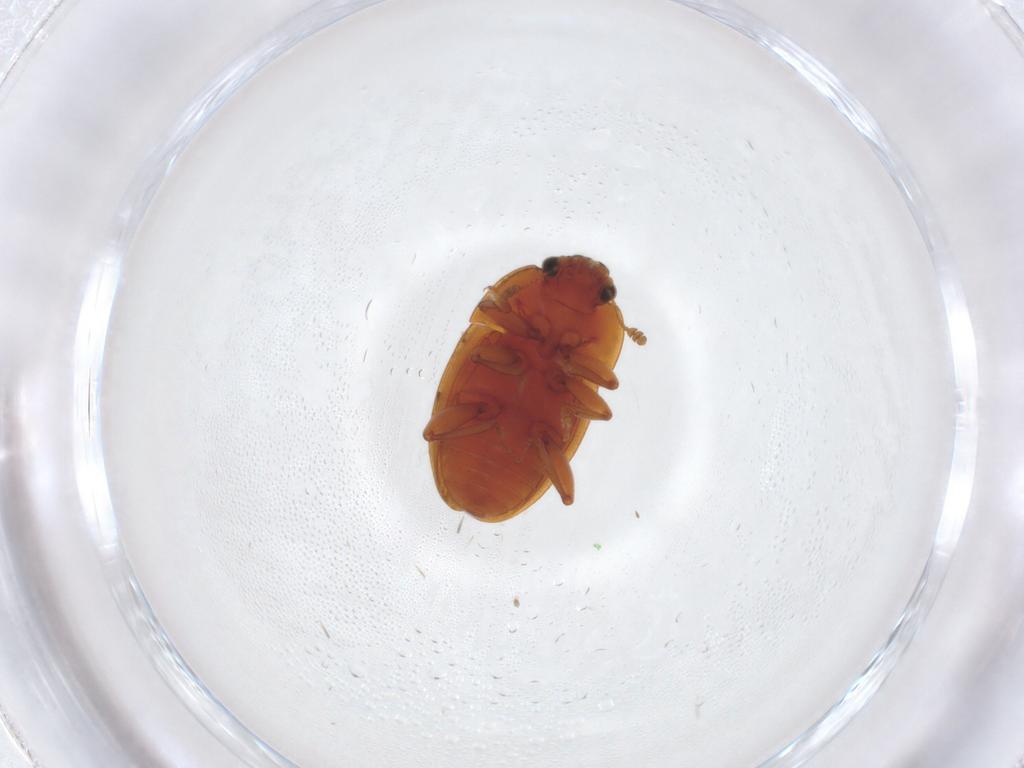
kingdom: Animalia
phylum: Arthropoda
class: Insecta
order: Coleoptera
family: Nitidulidae
